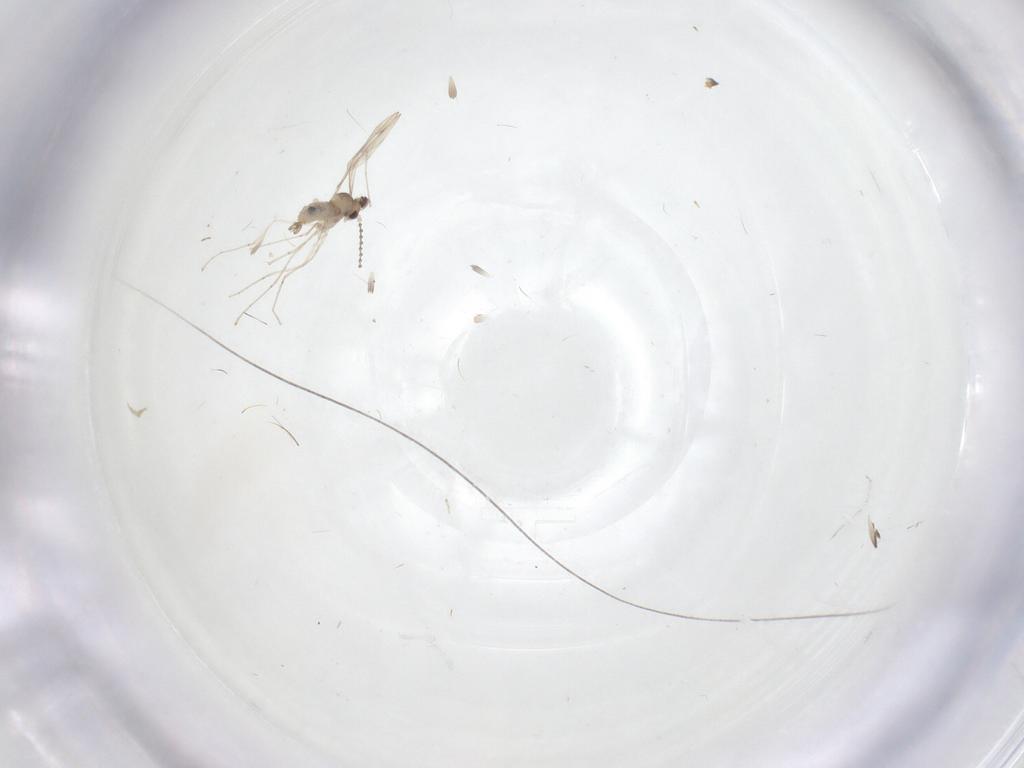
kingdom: Animalia
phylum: Arthropoda
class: Insecta
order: Diptera
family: Cecidomyiidae
